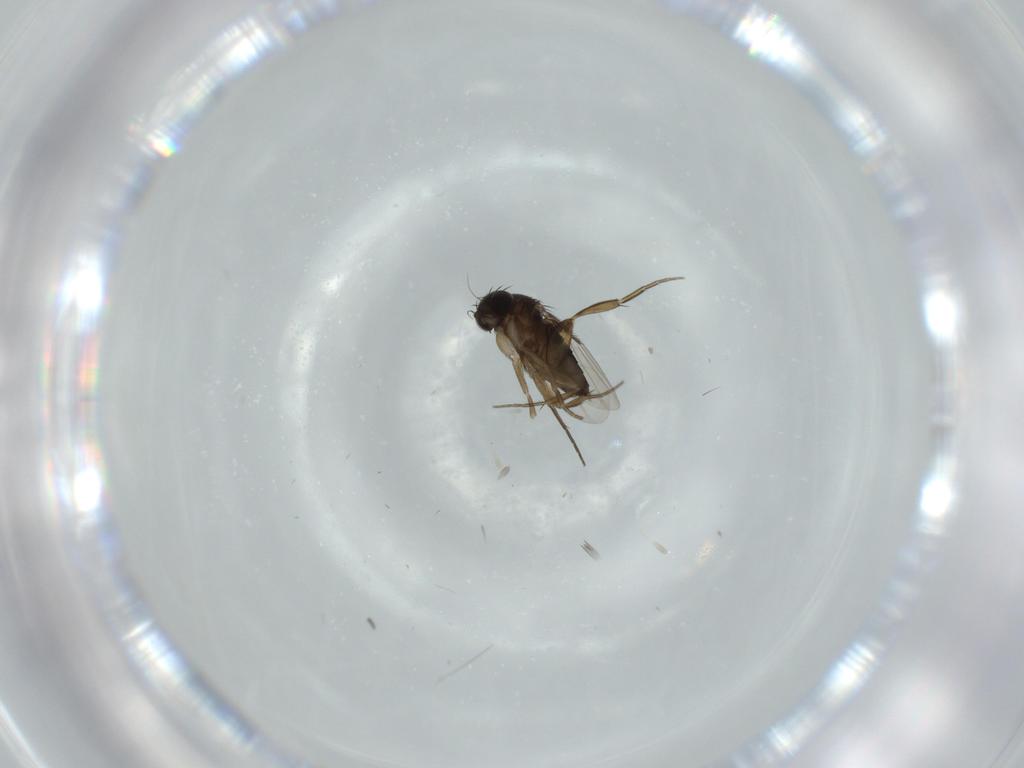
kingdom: Animalia
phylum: Arthropoda
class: Insecta
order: Diptera
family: Phoridae
